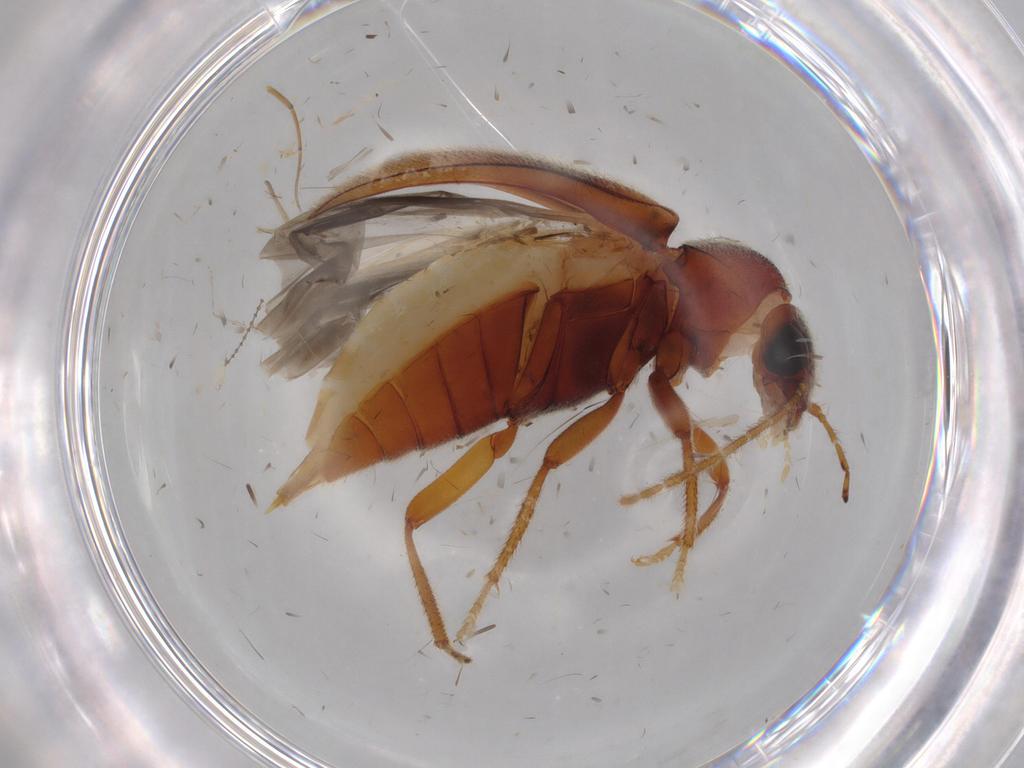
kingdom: Animalia
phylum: Arthropoda
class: Insecta
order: Coleoptera
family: Ptilodactylidae
